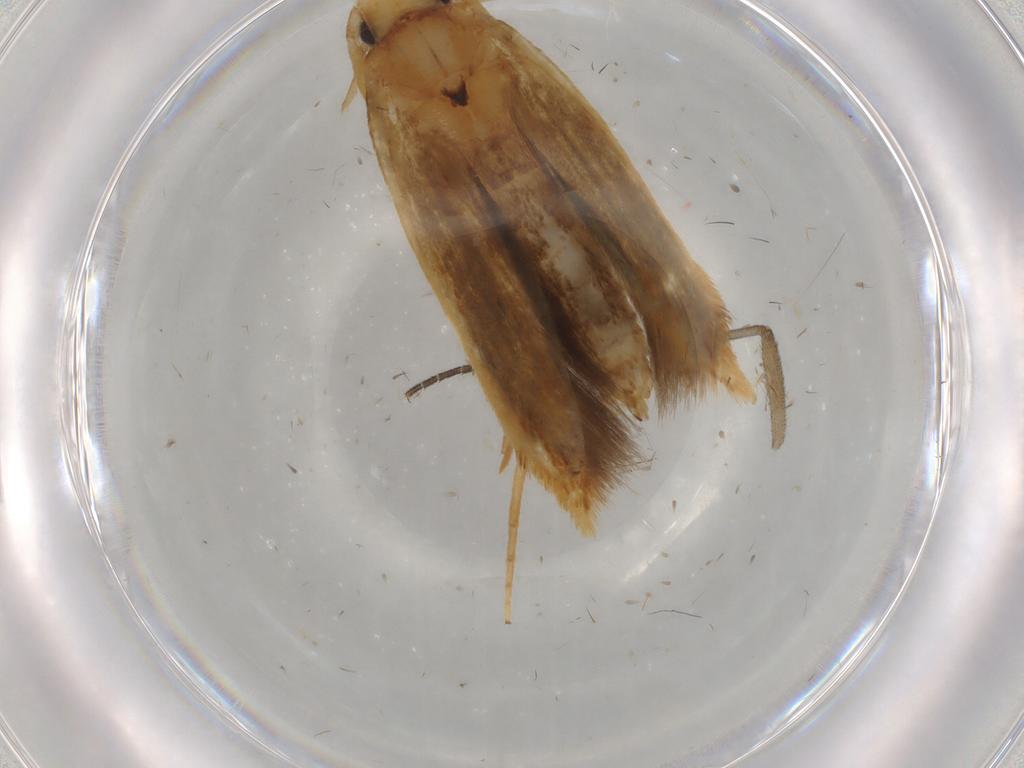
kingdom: Animalia
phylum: Arthropoda
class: Insecta
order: Lepidoptera
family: Tineidae
